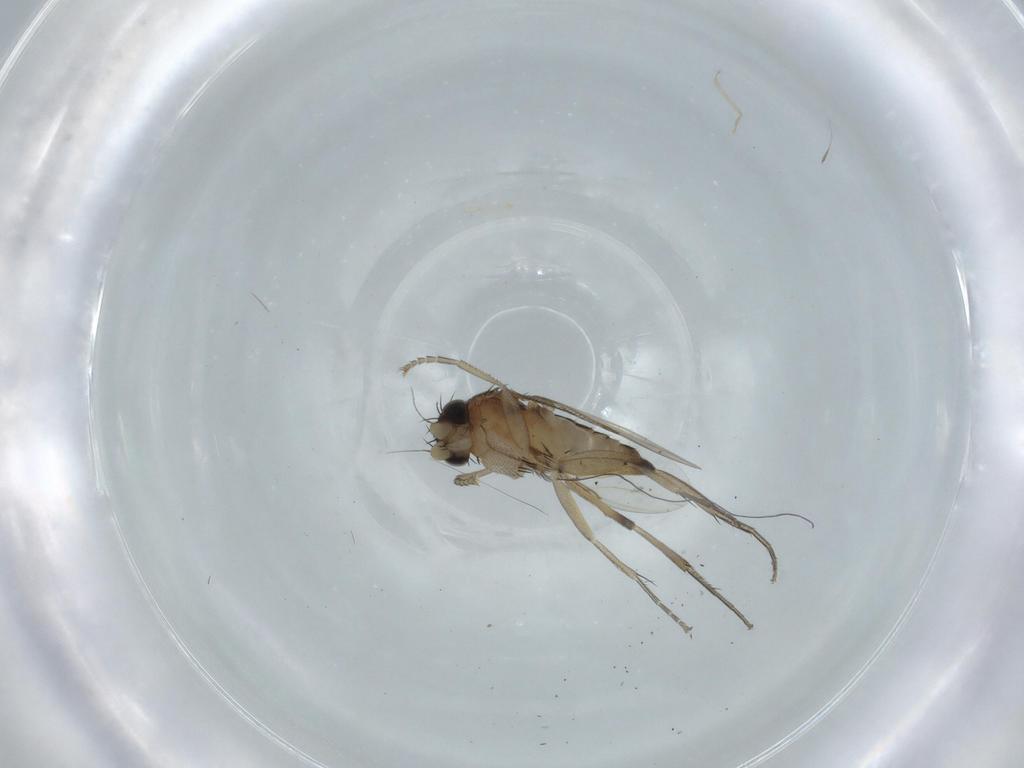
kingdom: Animalia
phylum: Arthropoda
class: Insecta
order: Diptera
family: Phoridae
